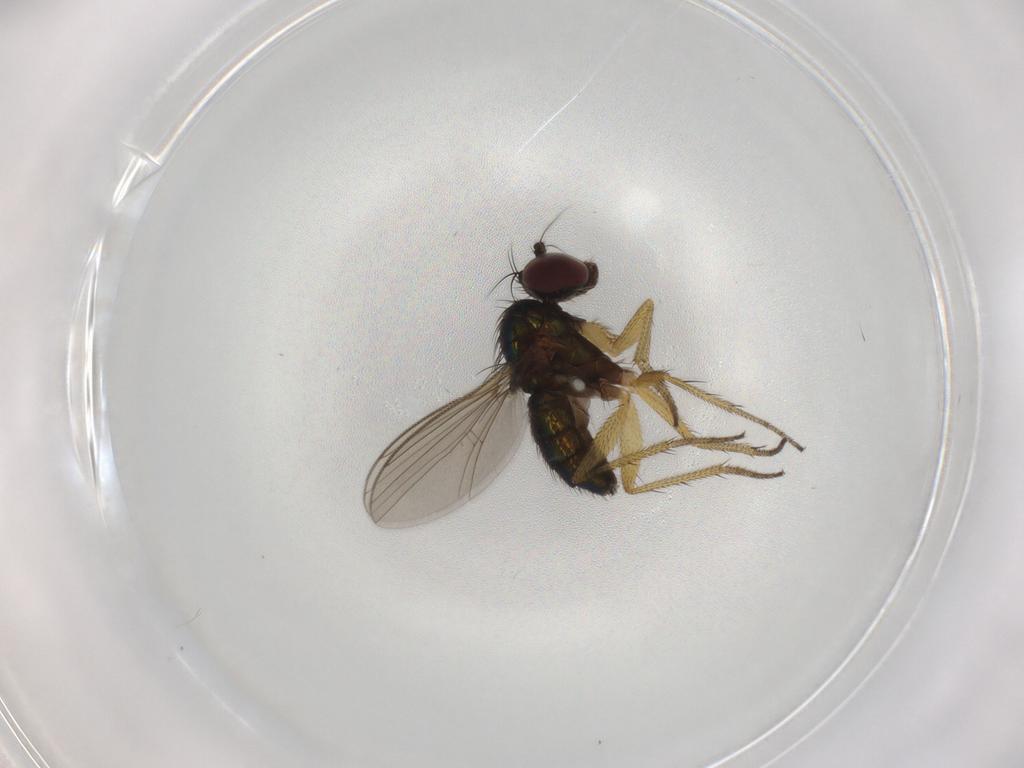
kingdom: Animalia
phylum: Arthropoda
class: Insecta
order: Diptera
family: Dolichopodidae
